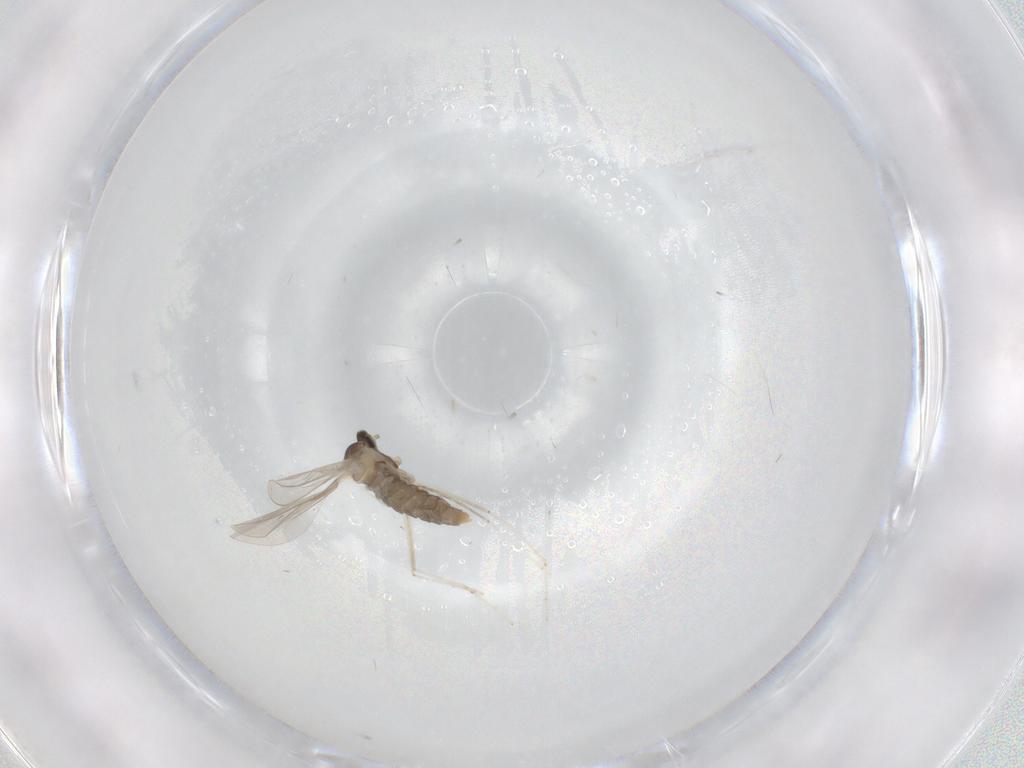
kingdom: Animalia
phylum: Arthropoda
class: Insecta
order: Diptera
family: Cecidomyiidae
